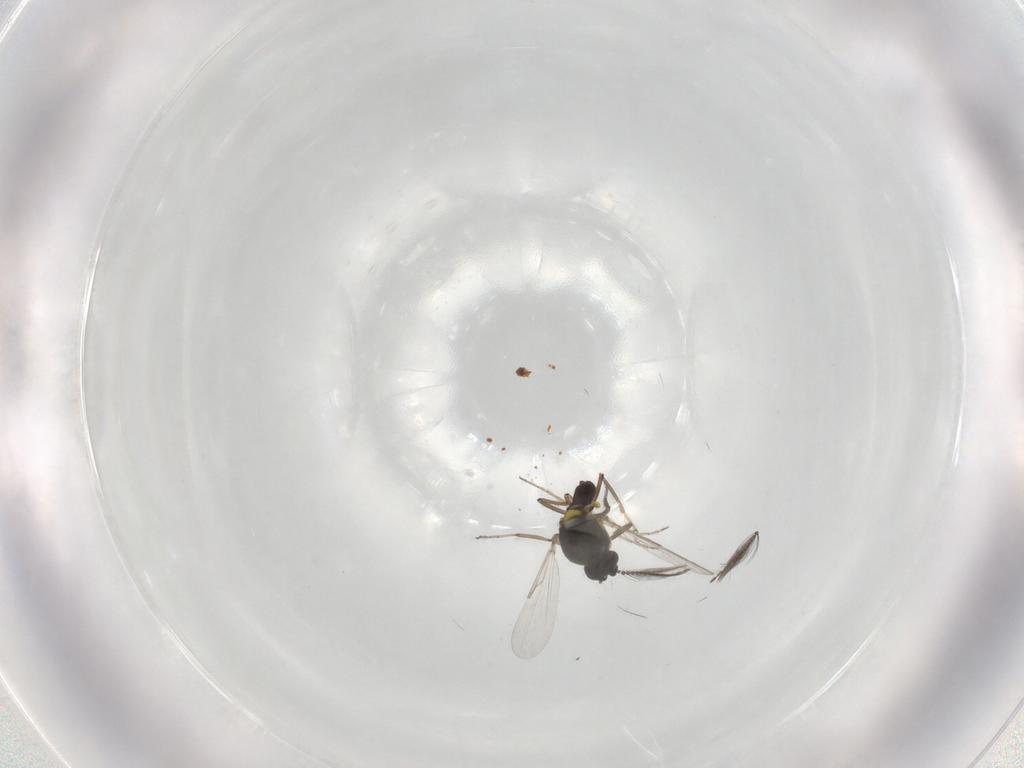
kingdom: Animalia
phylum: Arthropoda
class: Insecta
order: Diptera
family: Ceratopogonidae
